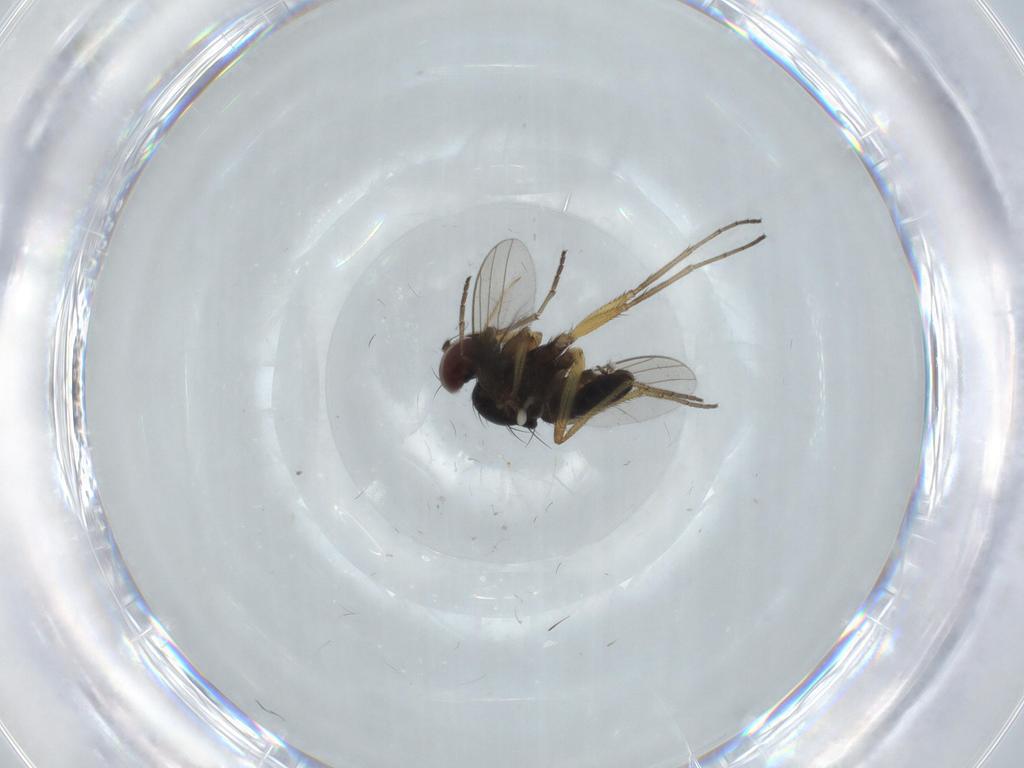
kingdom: Animalia
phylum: Arthropoda
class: Insecta
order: Diptera
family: Dolichopodidae
